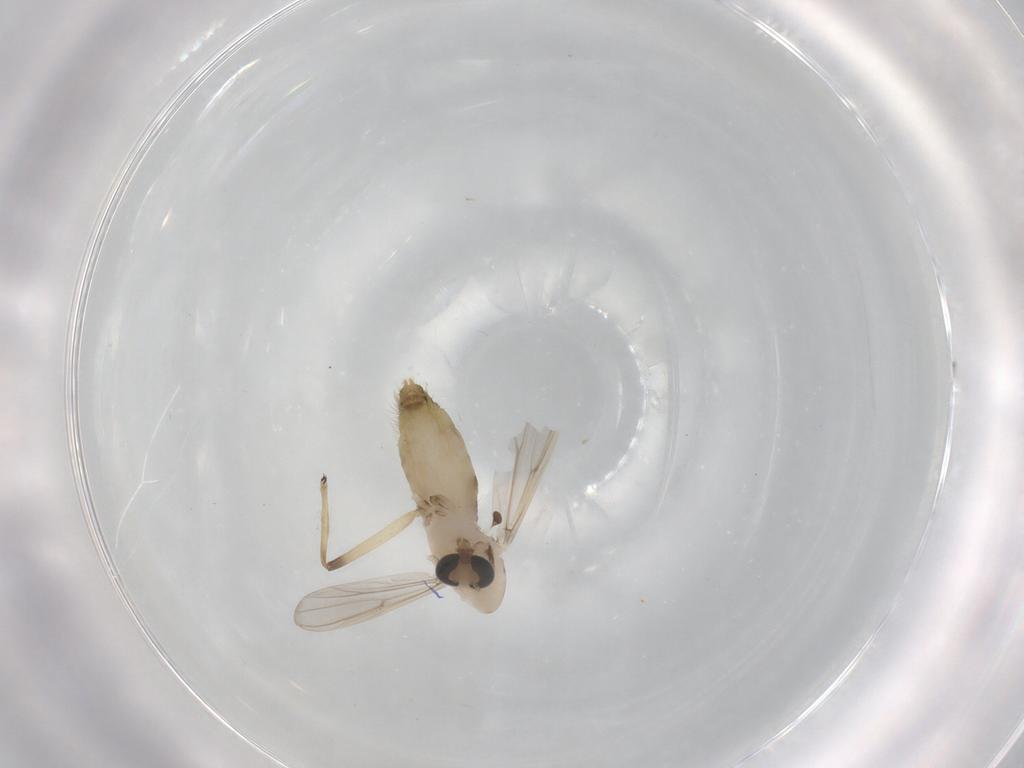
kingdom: Animalia
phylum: Arthropoda
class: Insecta
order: Diptera
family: Chironomidae
